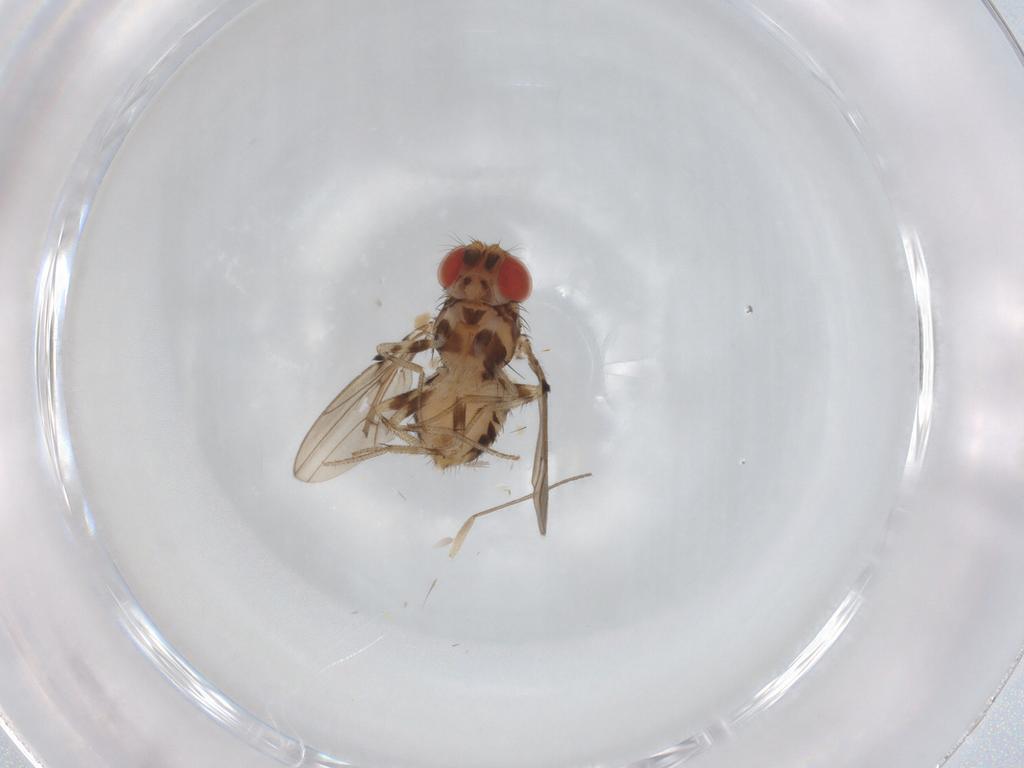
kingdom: Animalia
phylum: Arthropoda
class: Insecta
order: Diptera
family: Drosophilidae
